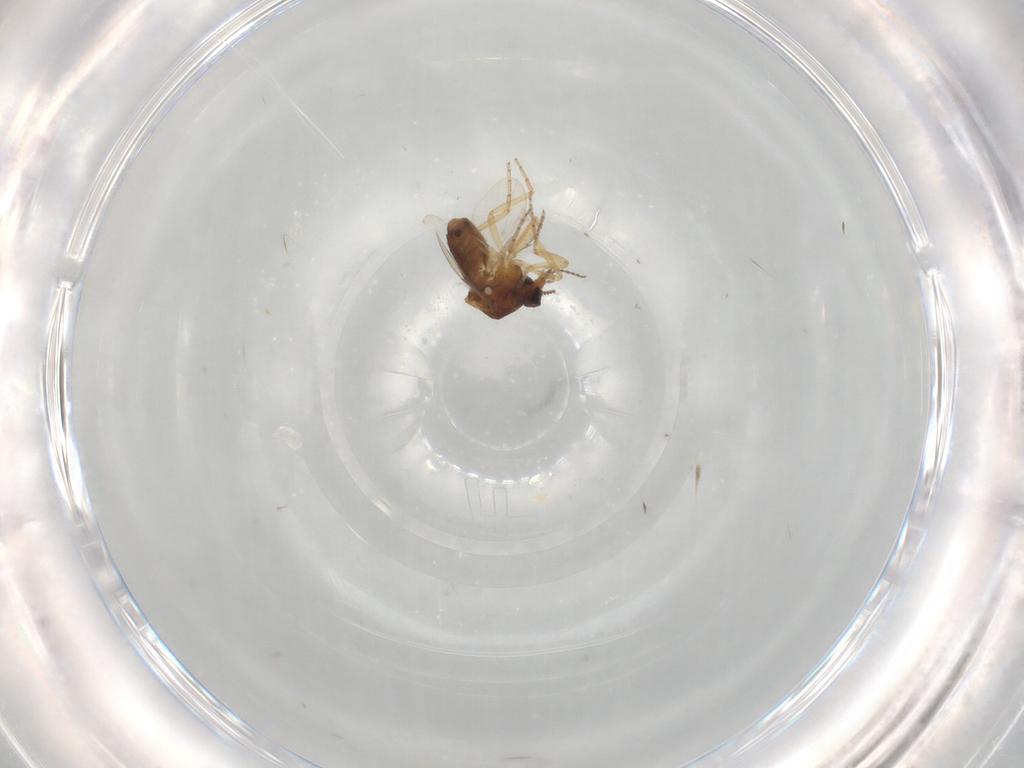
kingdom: Animalia
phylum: Arthropoda
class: Insecta
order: Diptera
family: Ceratopogonidae
